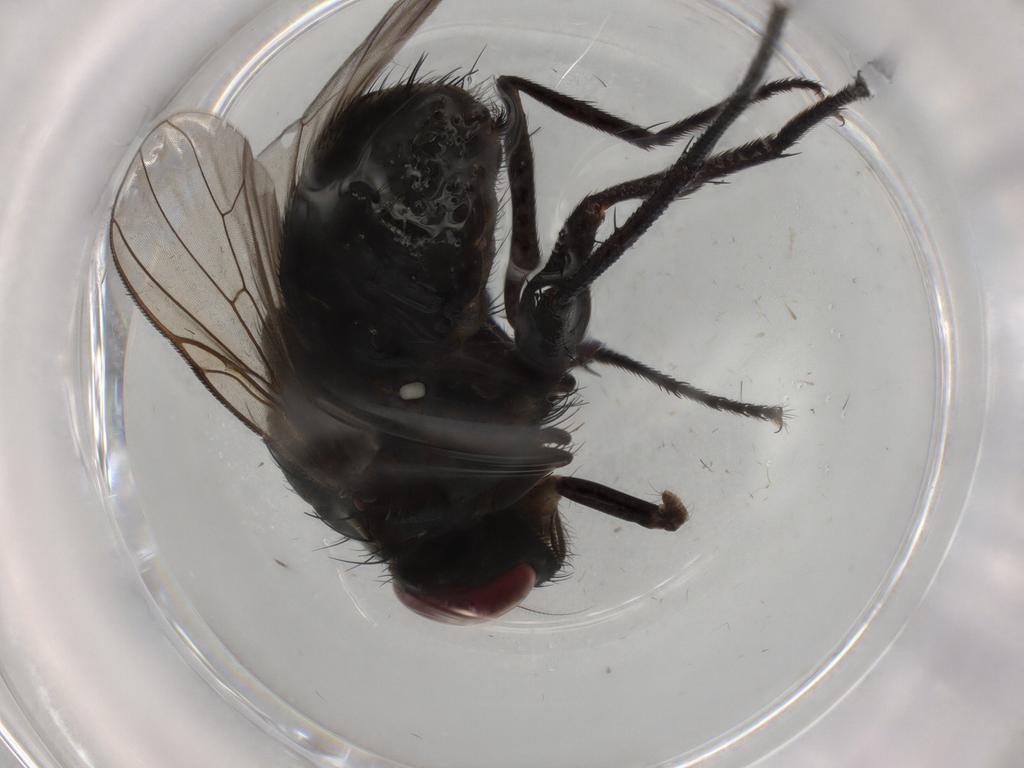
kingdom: Animalia
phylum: Arthropoda
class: Insecta
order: Diptera
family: Muscidae
